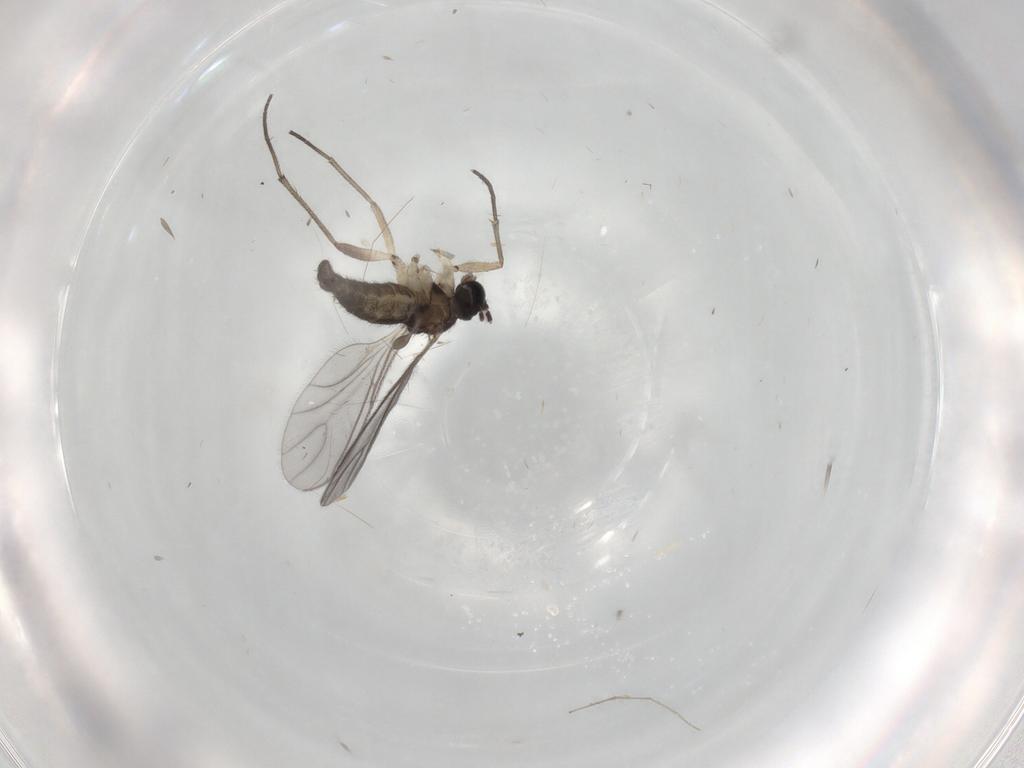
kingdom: Animalia
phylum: Arthropoda
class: Insecta
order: Diptera
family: Sciaridae
